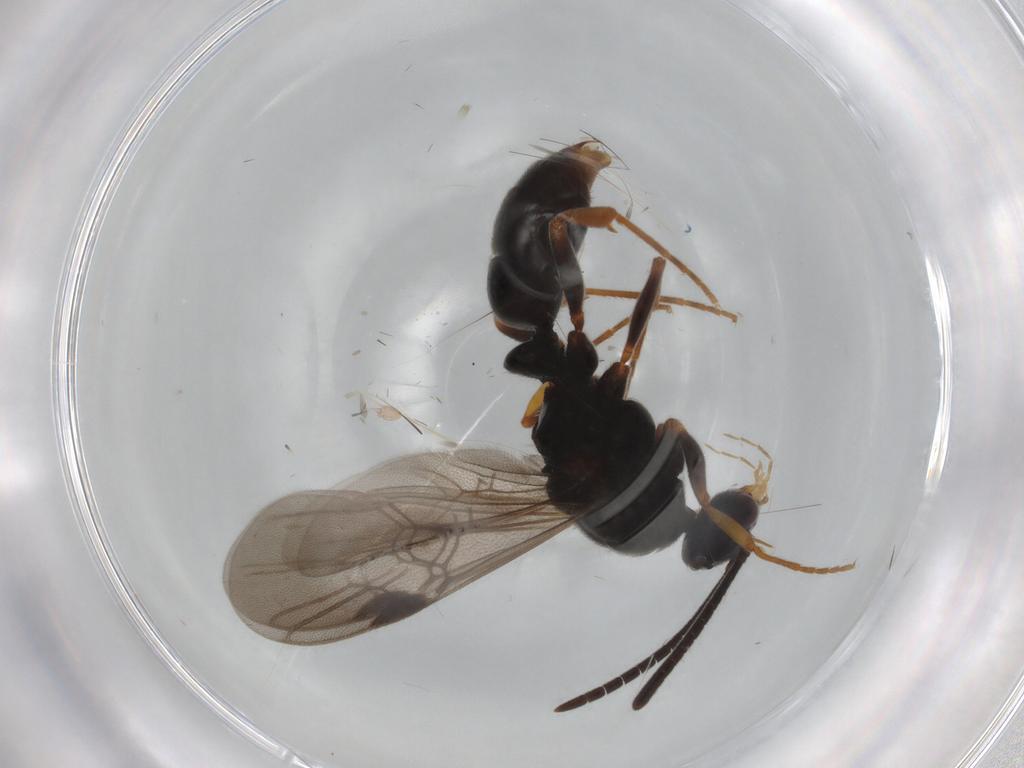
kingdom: Animalia
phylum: Arthropoda
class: Insecta
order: Hymenoptera
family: Formicidae
